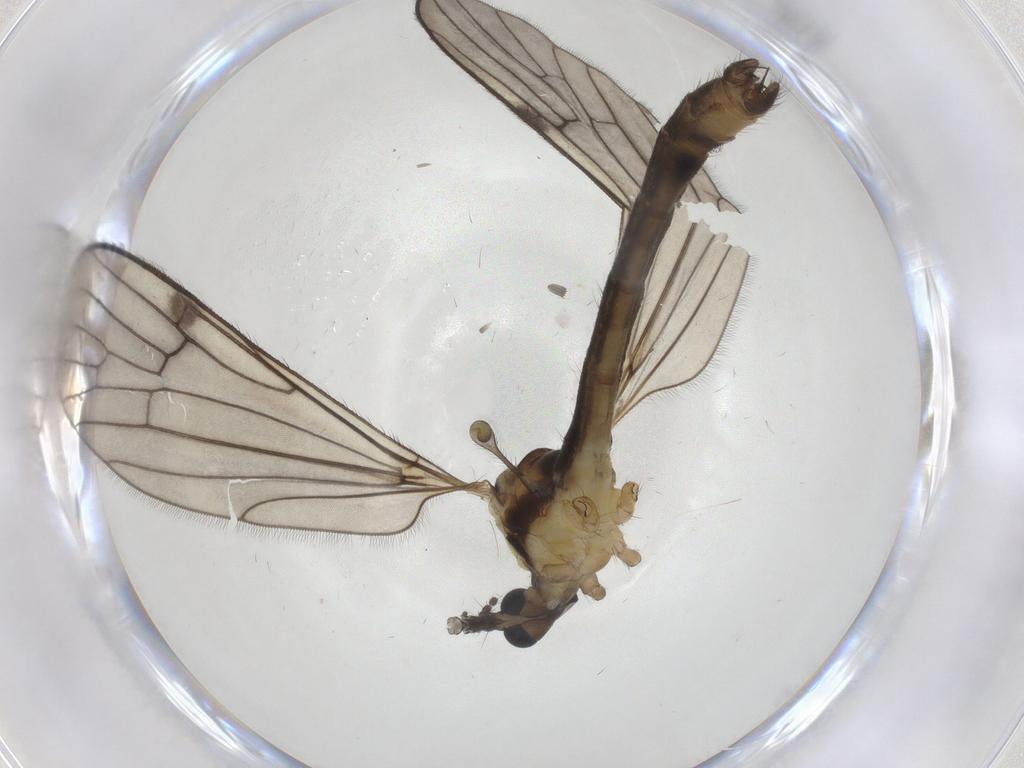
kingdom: Animalia
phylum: Arthropoda
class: Insecta
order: Diptera
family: Limoniidae
